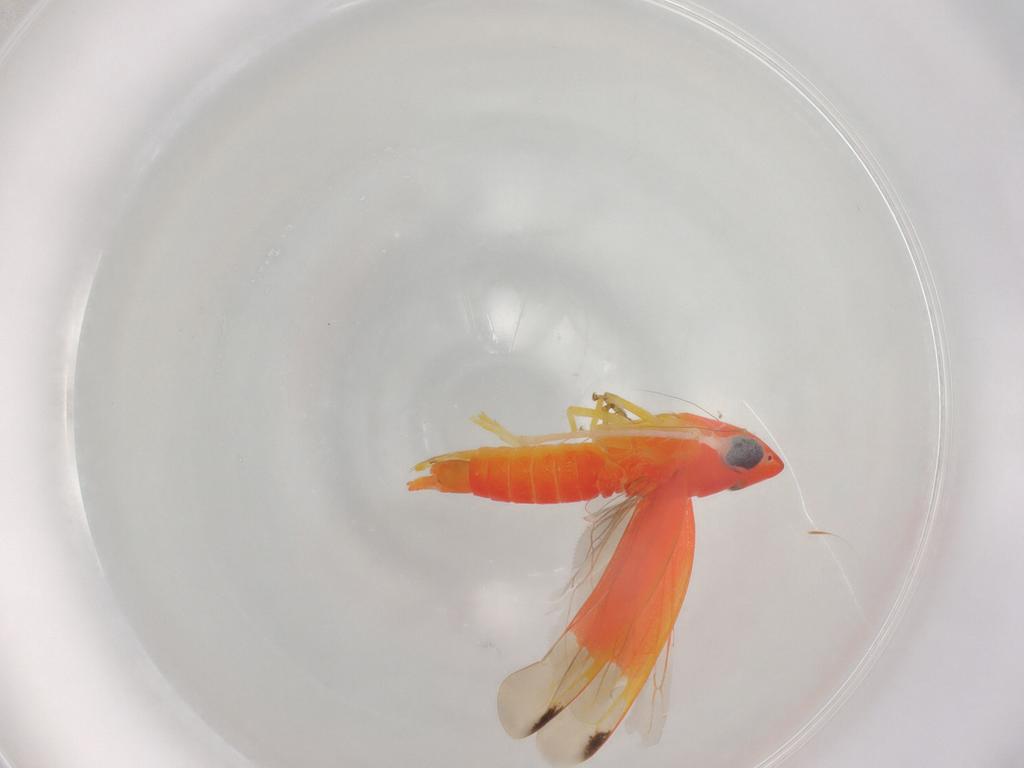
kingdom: Animalia
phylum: Arthropoda
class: Insecta
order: Hemiptera
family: Cicadellidae
